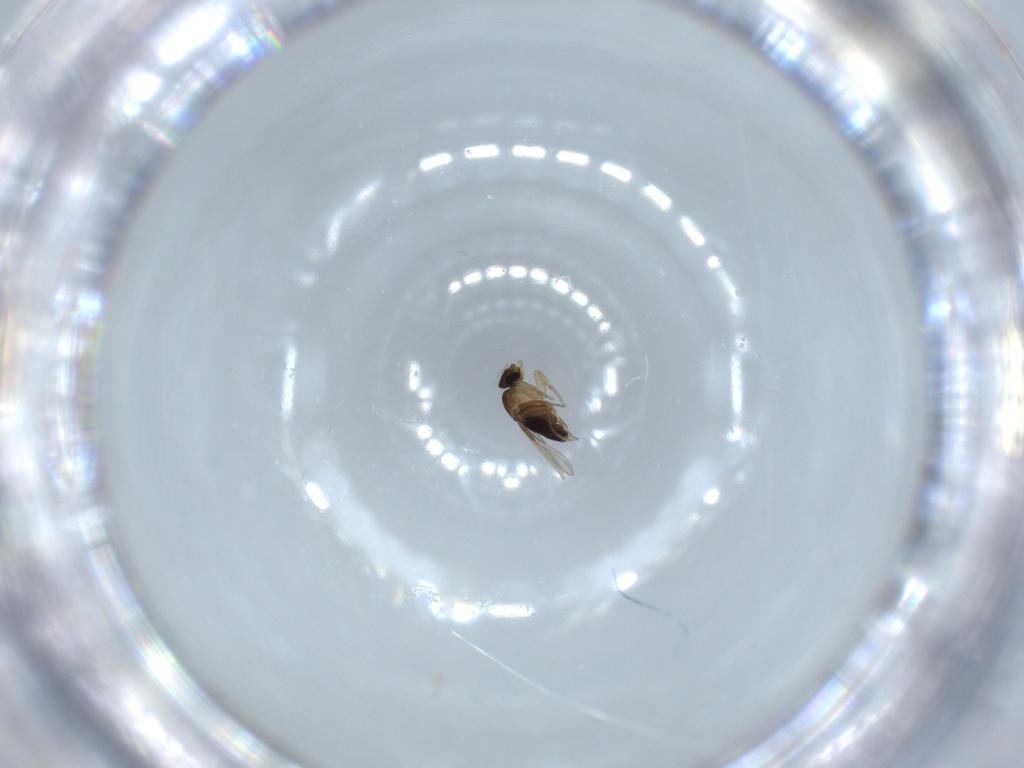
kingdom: Animalia
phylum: Arthropoda
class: Insecta
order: Diptera
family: Phoridae
